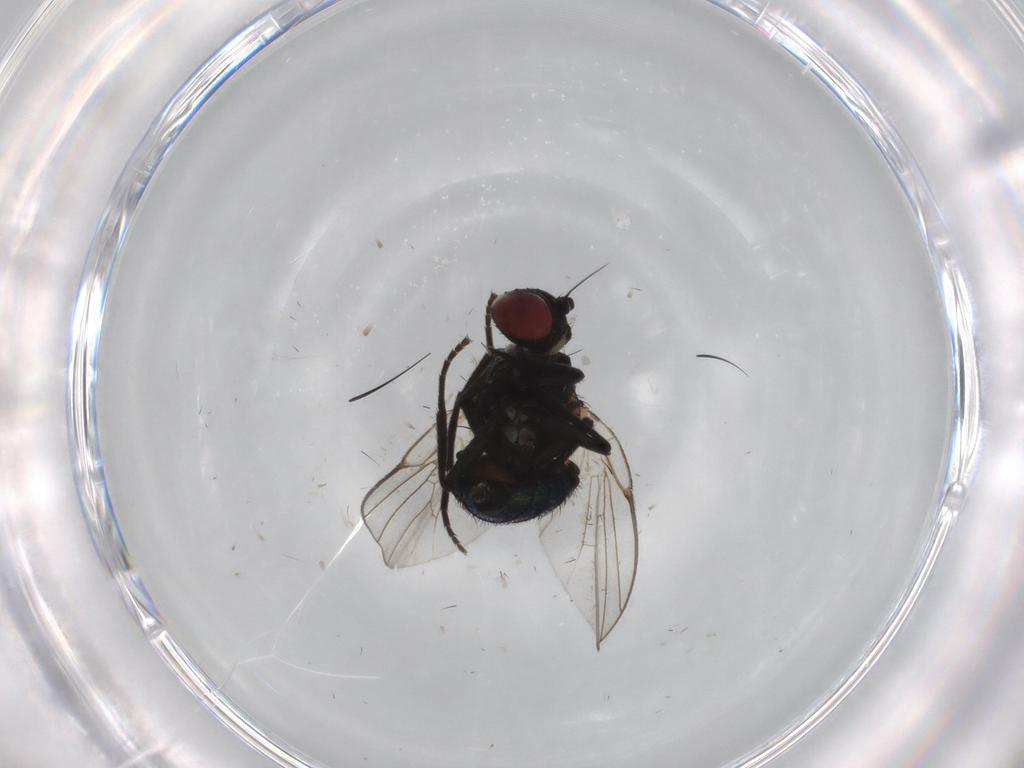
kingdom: Animalia
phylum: Arthropoda
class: Insecta
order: Diptera
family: Agromyzidae
